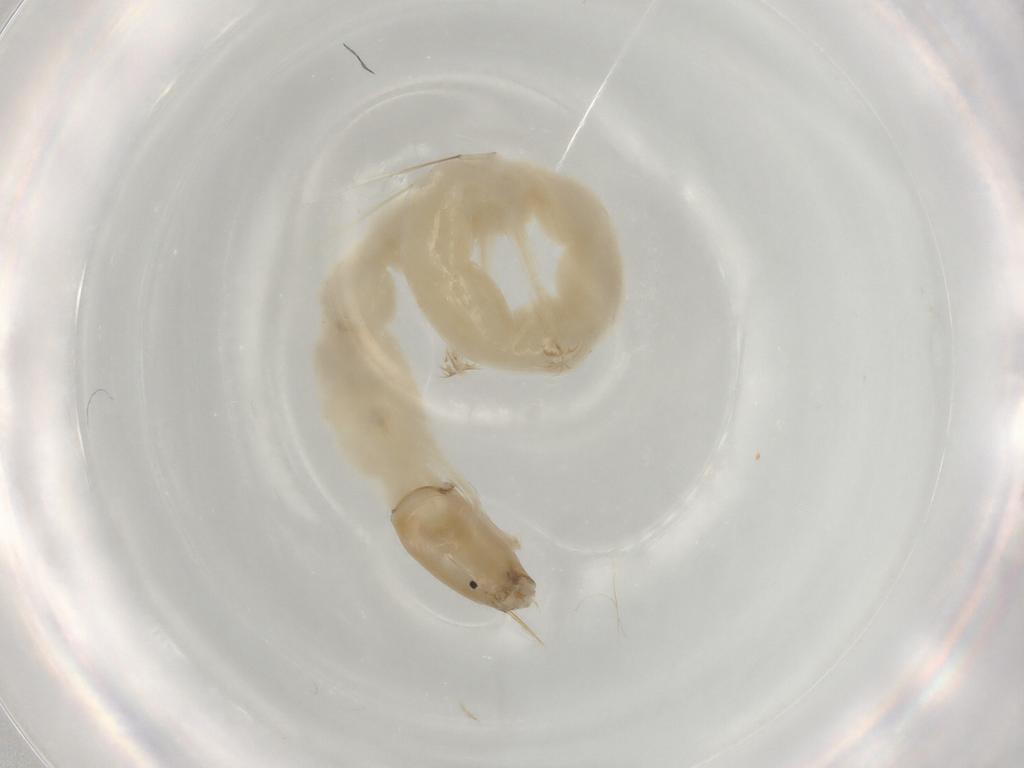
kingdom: Animalia
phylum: Arthropoda
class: Insecta
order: Diptera
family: Chironomidae
